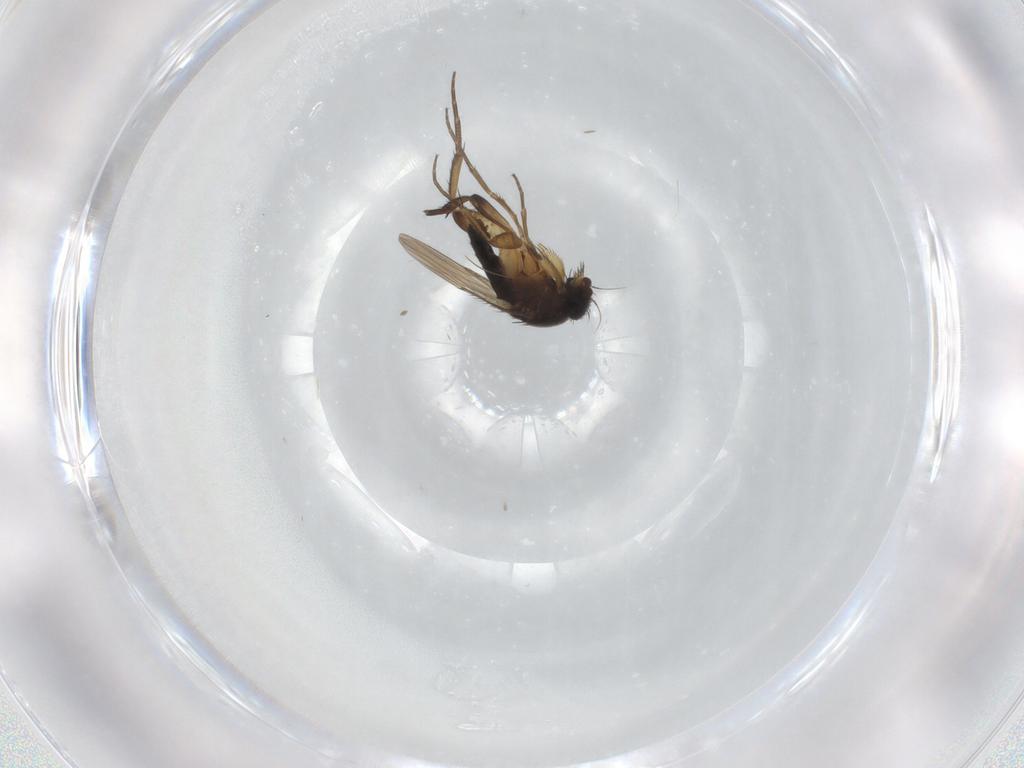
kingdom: Animalia
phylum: Arthropoda
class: Insecta
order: Diptera
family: Phoridae
